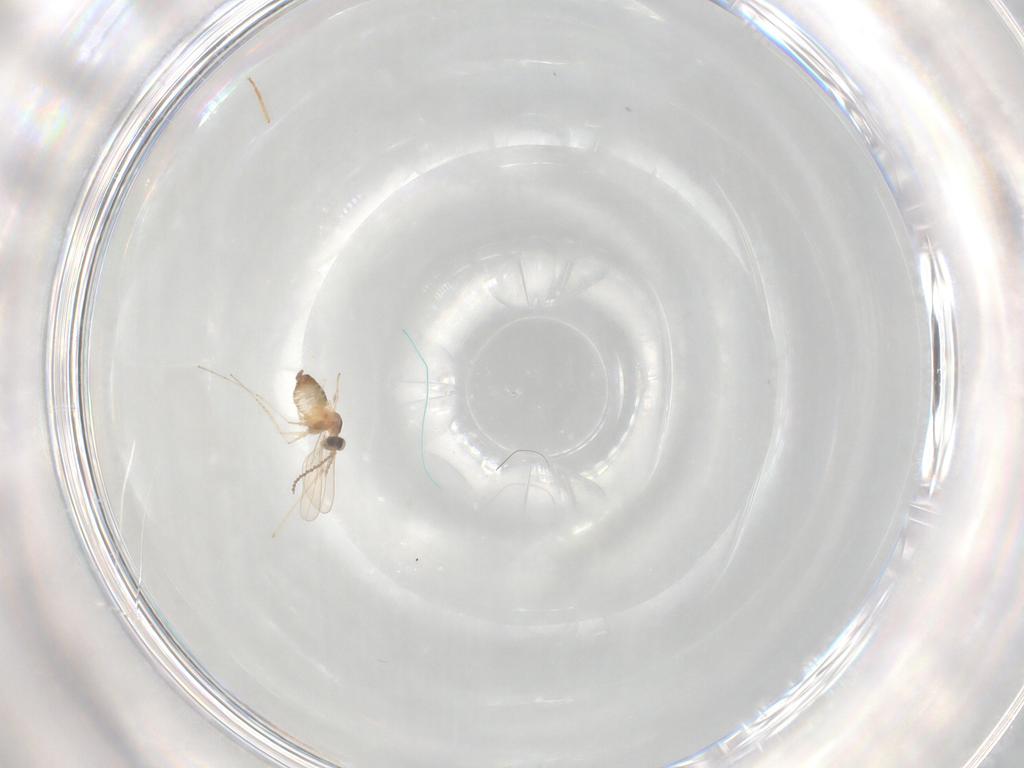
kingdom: Animalia
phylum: Arthropoda
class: Insecta
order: Diptera
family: Cecidomyiidae
